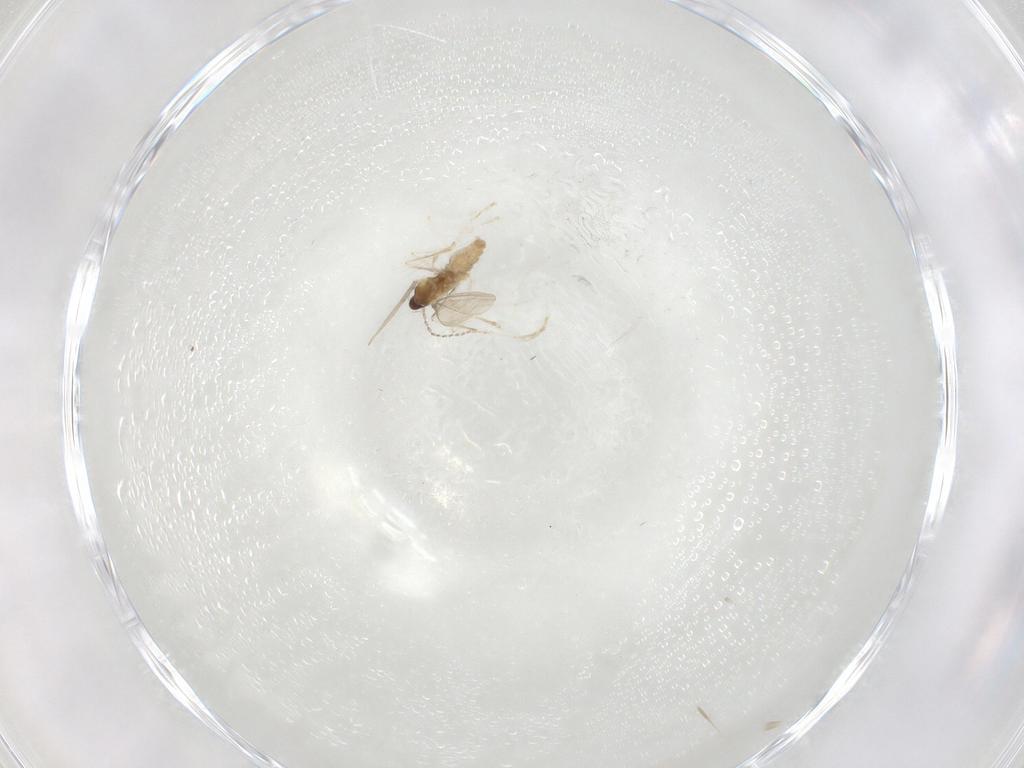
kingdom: Animalia
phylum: Arthropoda
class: Insecta
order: Diptera
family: Cecidomyiidae
